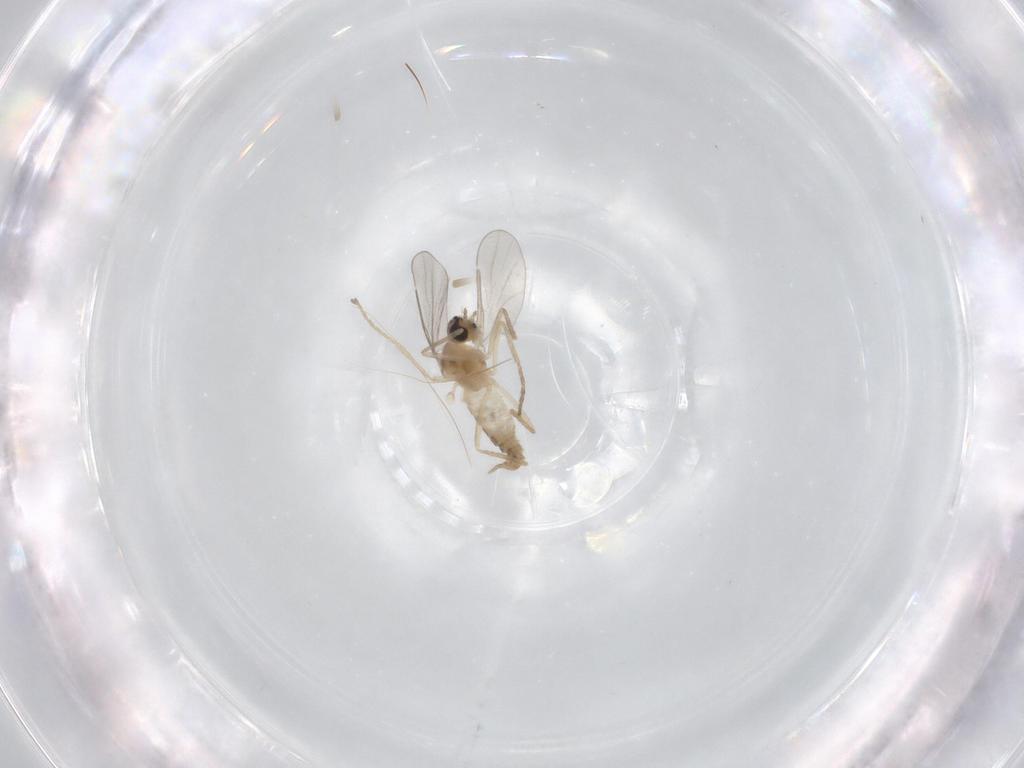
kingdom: Animalia
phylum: Arthropoda
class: Insecta
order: Diptera
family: Cecidomyiidae
